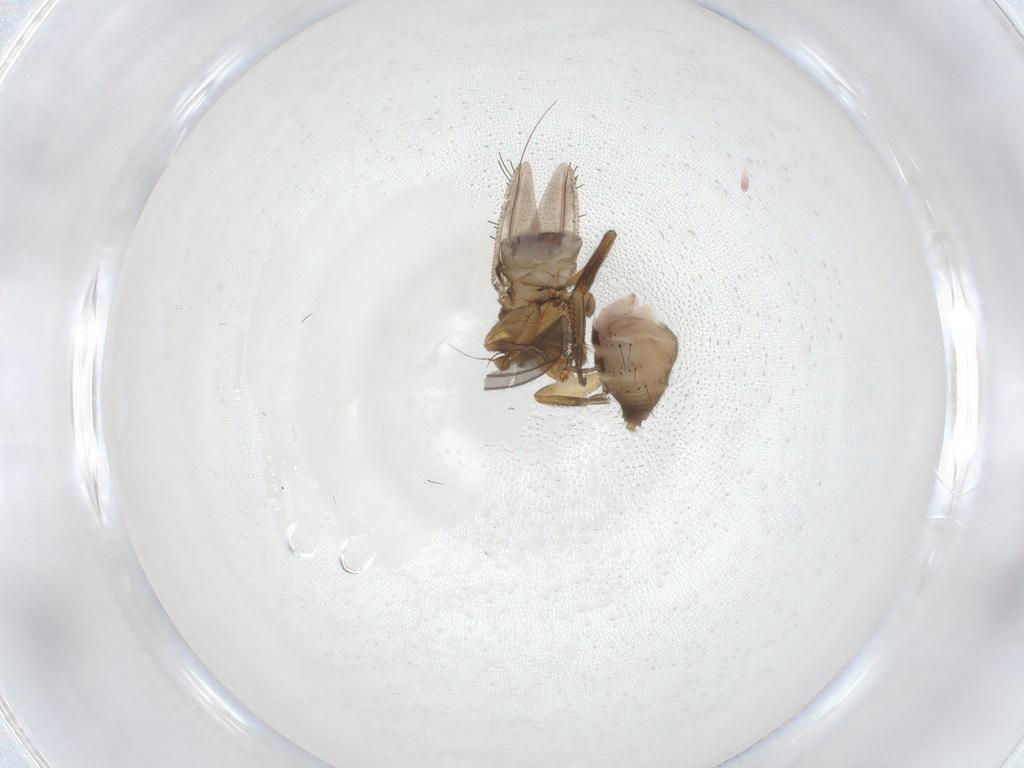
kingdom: Animalia
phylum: Arthropoda
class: Insecta
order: Diptera
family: Phoridae
